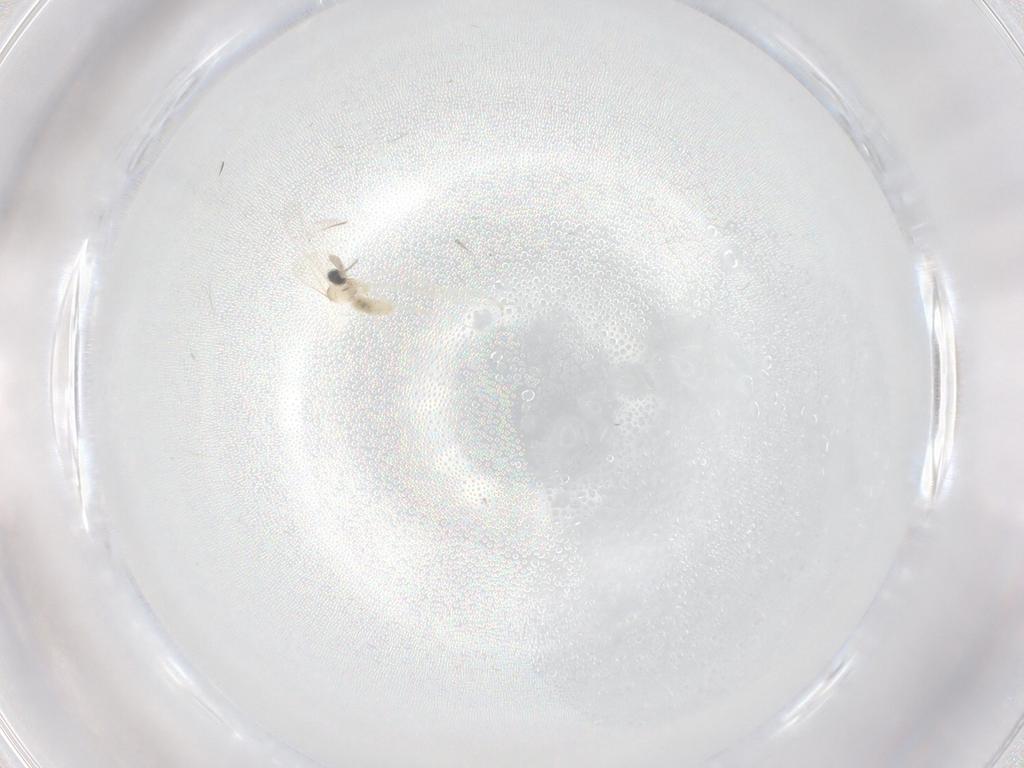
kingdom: Animalia
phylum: Arthropoda
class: Insecta
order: Diptera
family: Cecidomyiidae
